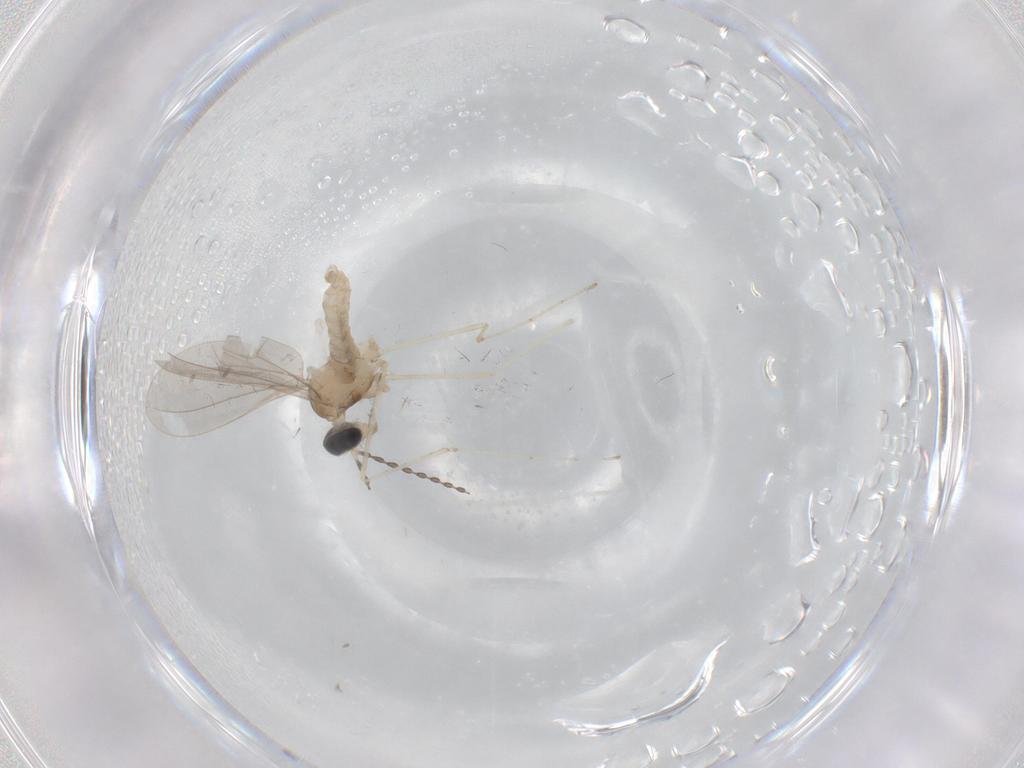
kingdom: Animalia
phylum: Arthropoda
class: Insecta
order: Diptera
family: Cecidomyiidae
